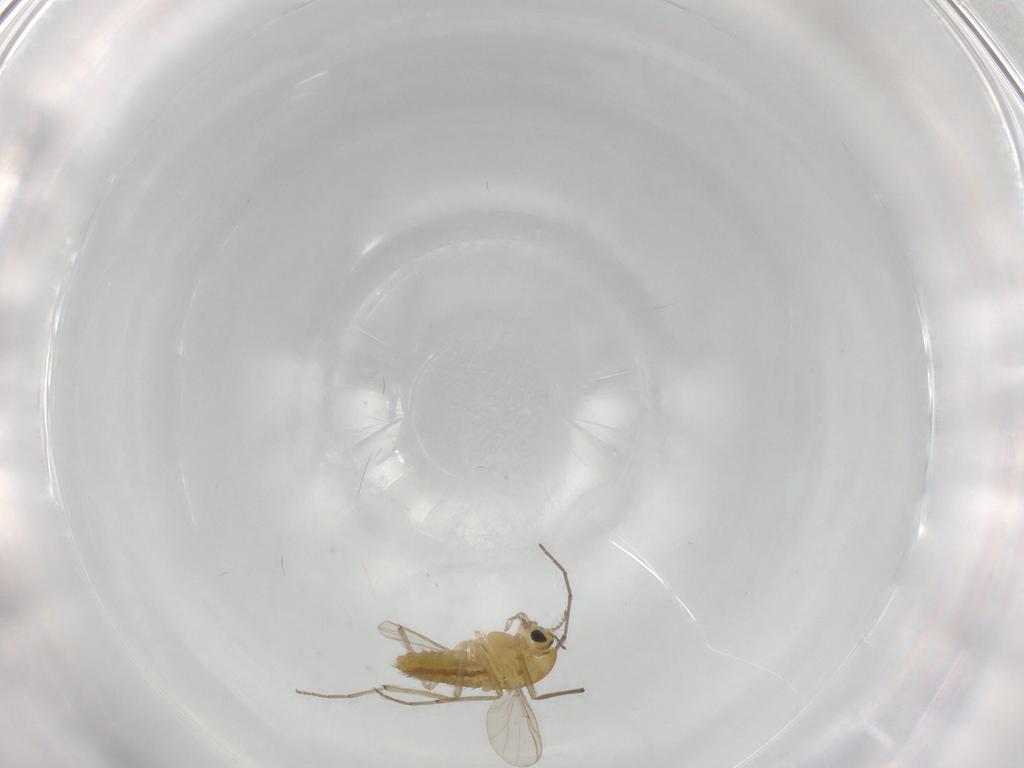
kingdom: Animalia
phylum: Arthropoda
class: Insecta
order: Diptera
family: Chironomidae
